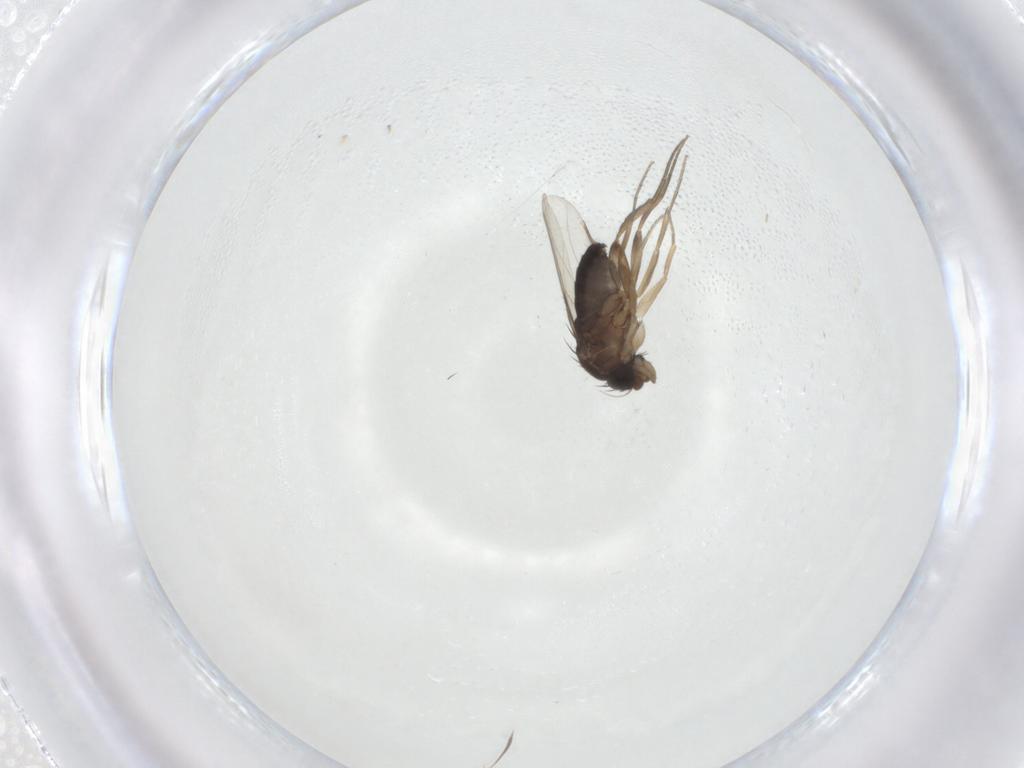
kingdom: Animalia
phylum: Arthropoda
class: Insecta
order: Diptera
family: Phoridae
